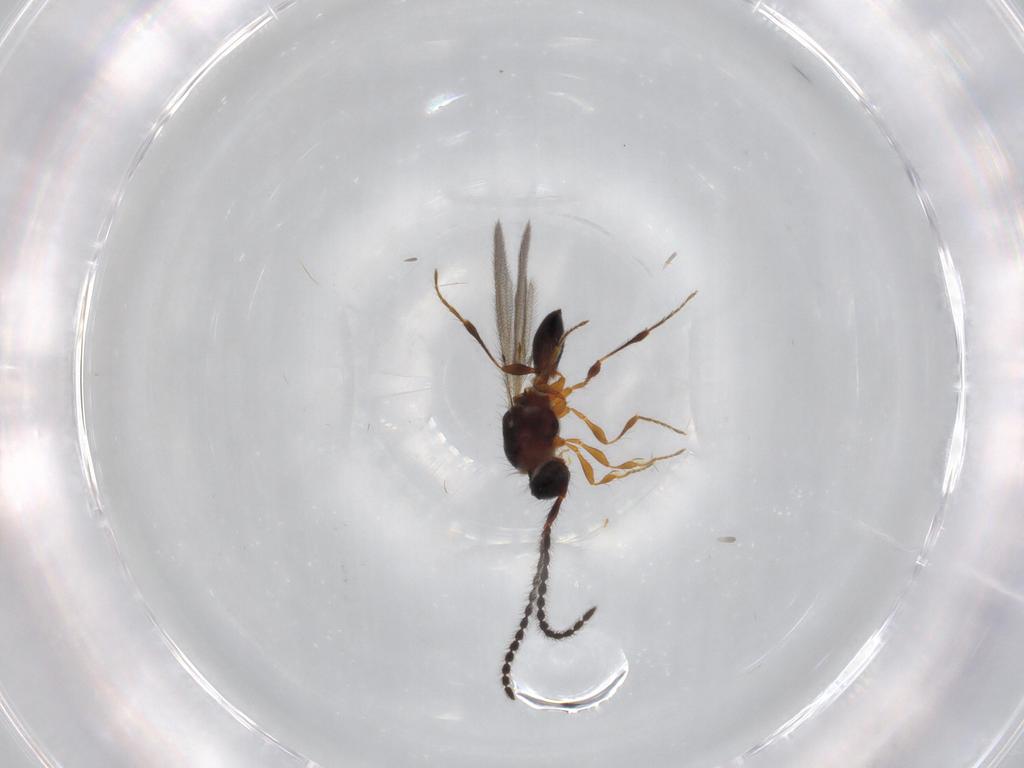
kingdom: Animalia
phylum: Arthropoda
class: Insecta
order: Hymenoptera
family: Diapriidae
